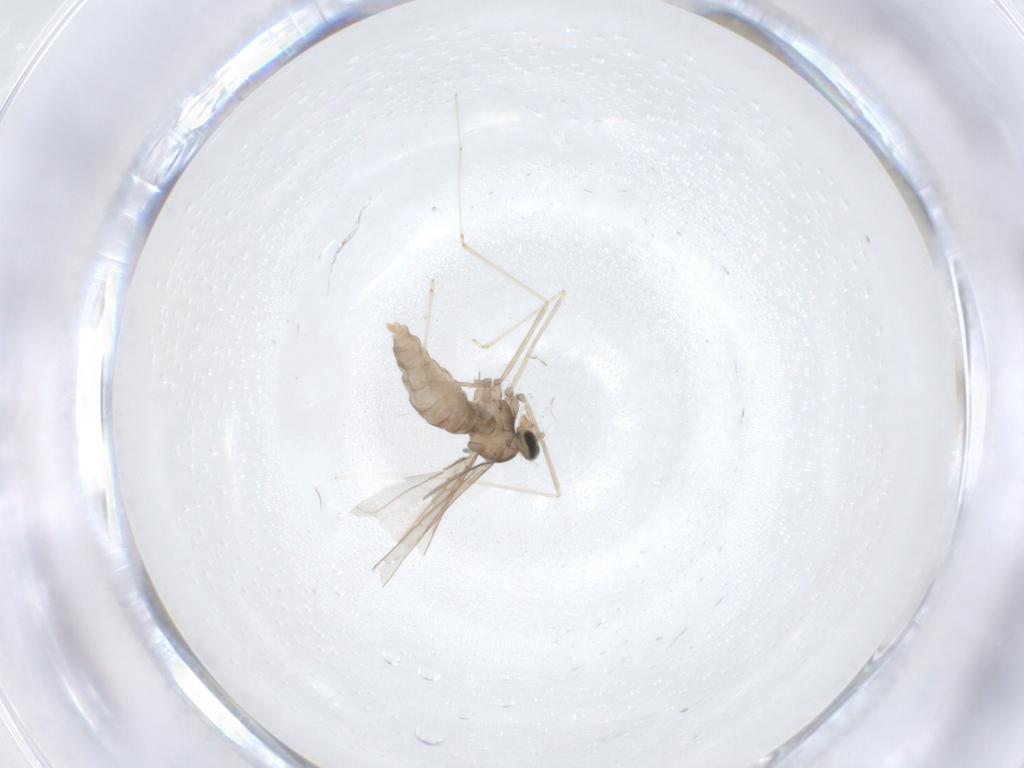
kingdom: Animalia
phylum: Arthropoda
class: Insecta
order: Diptera
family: Cecidomyiidae
